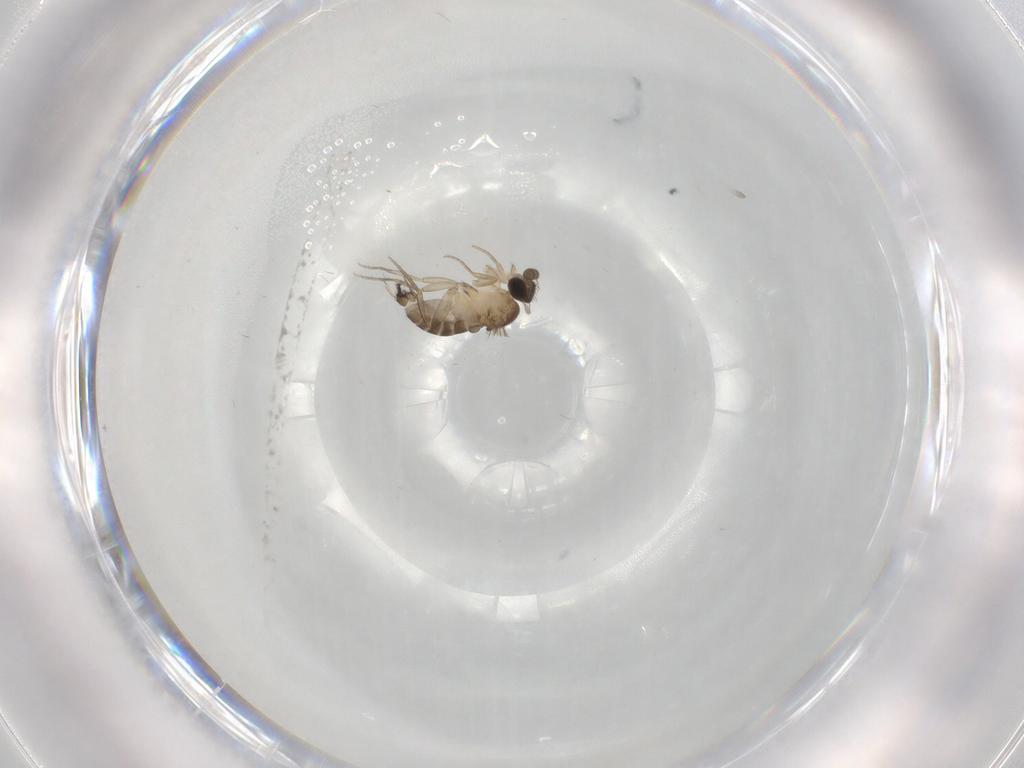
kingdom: Animalia
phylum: Arthropoda
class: Insecta
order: Diptera
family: Phoridae
